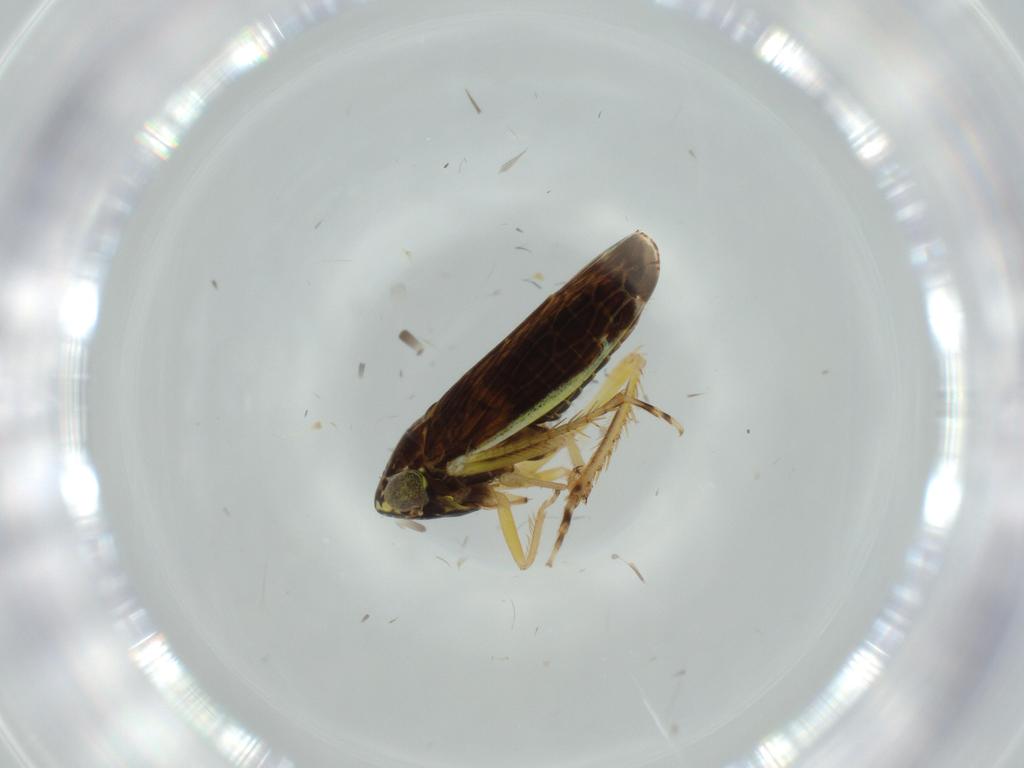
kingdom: Animalia
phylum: Arthropoda
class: Insecta
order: Hemiptera
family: Cicadellidae
